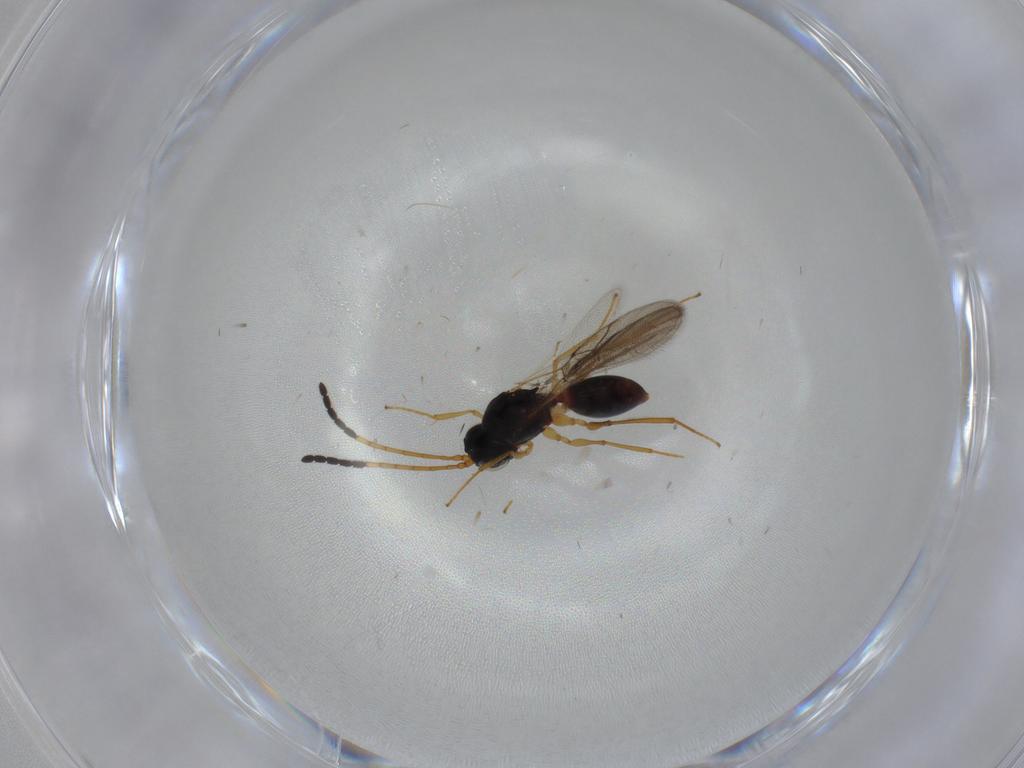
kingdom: Animalia
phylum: Arthropoda
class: Insecta
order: Hymenoptera
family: Figitidae
